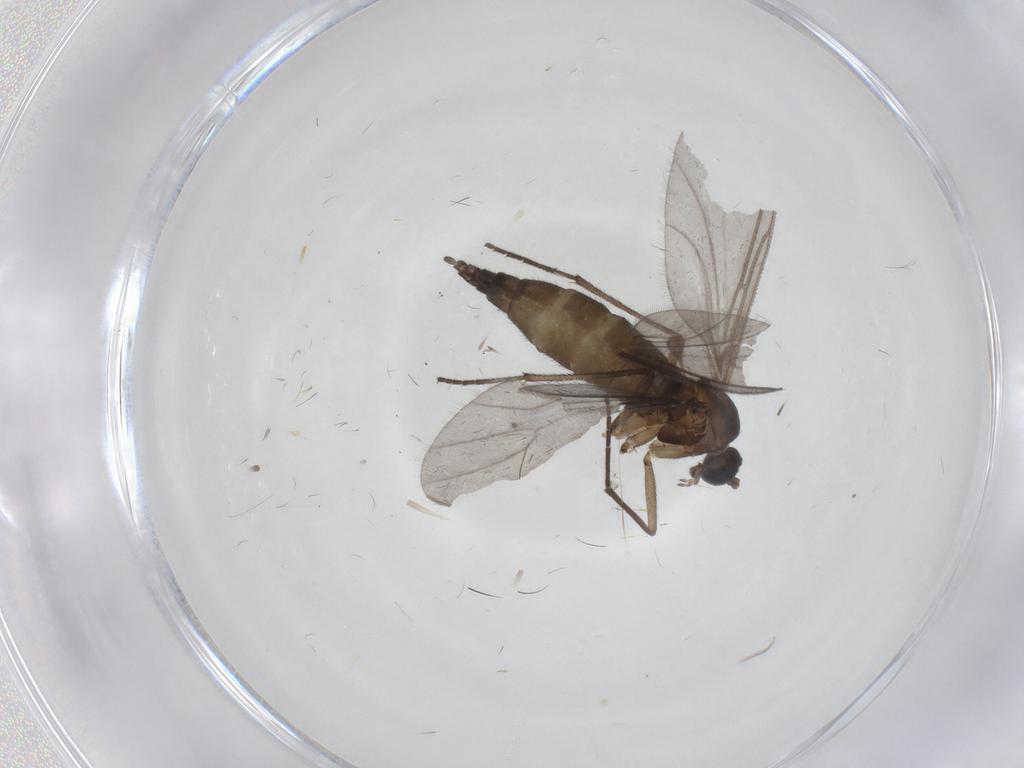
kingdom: Animalia
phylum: Arthropoda
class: Insecta
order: Diptera
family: Sciaridae
